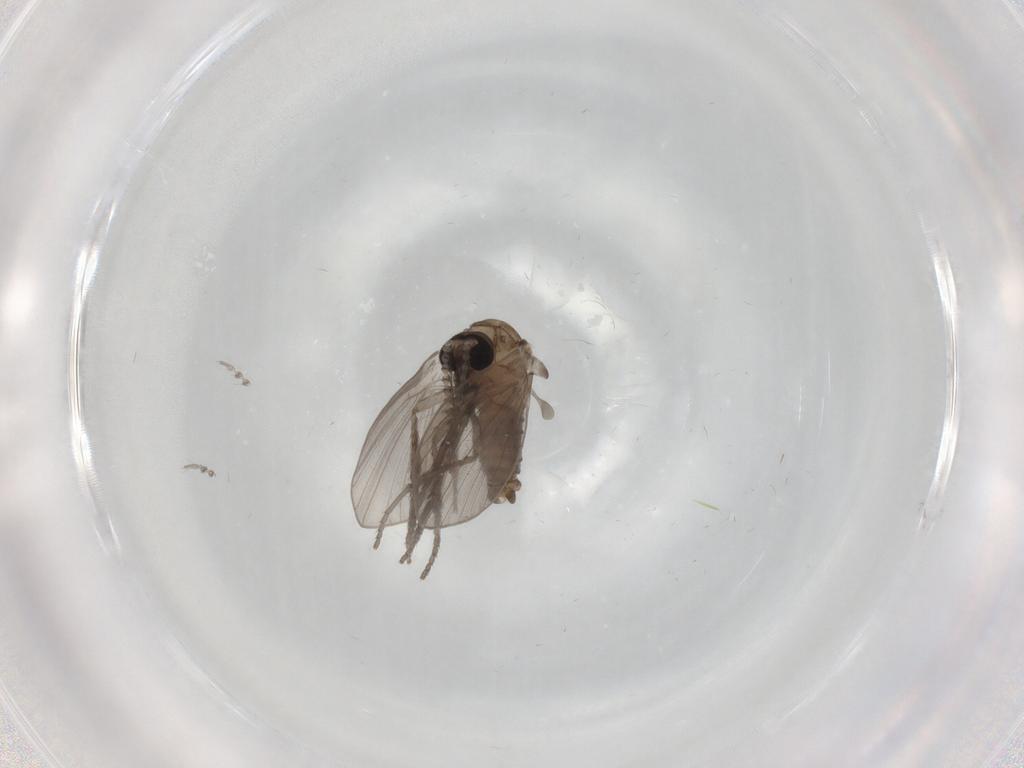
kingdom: Animalia
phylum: Arthropoda
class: Insecta
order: Diptera
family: Psychodidae
